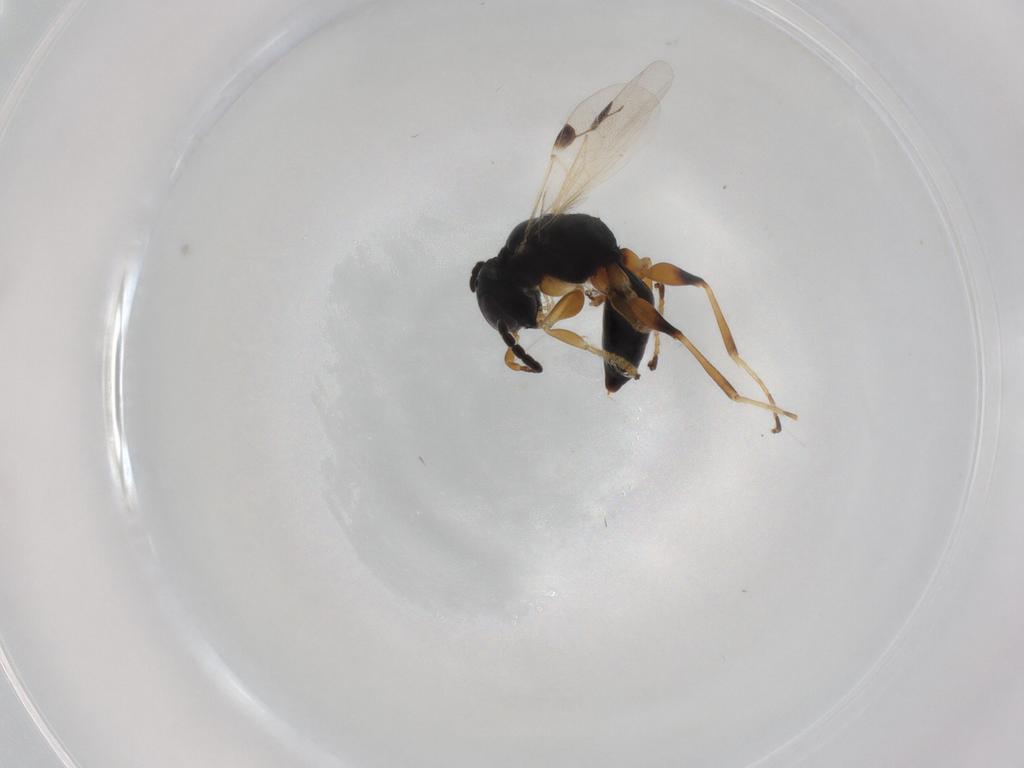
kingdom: Animalia
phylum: Arthropoda
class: Insecta
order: Hymenoptera
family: Dryinidae
